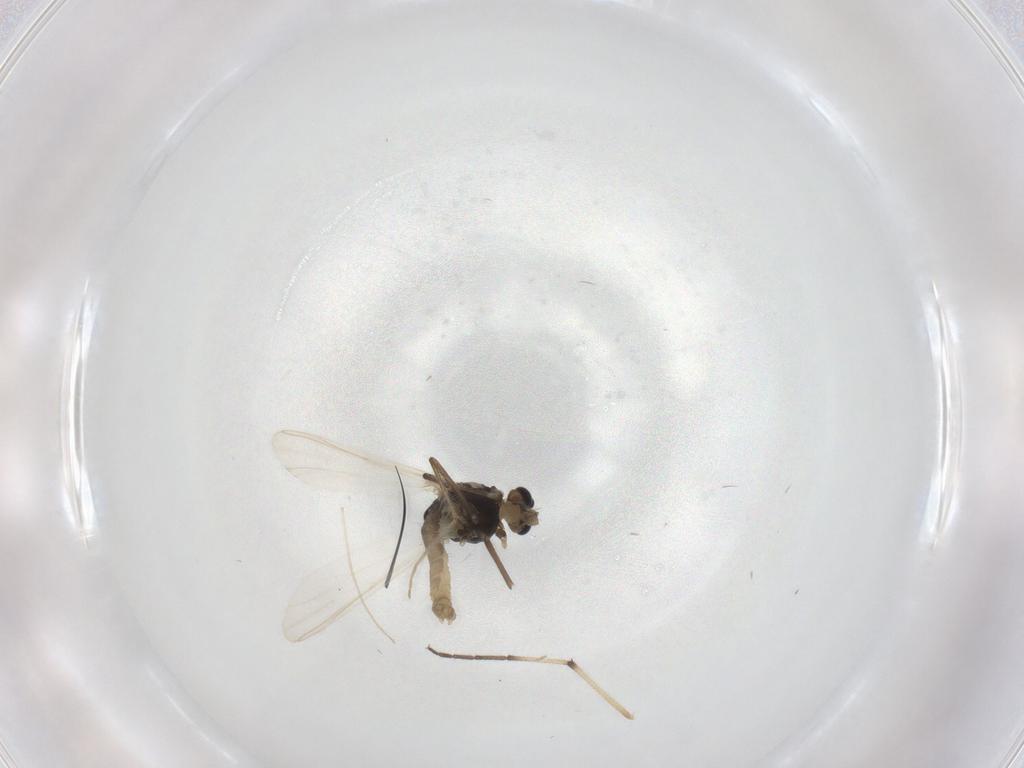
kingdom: Animalia
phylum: Arthropoda
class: Insecta
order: Diptera
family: Chironomidae
